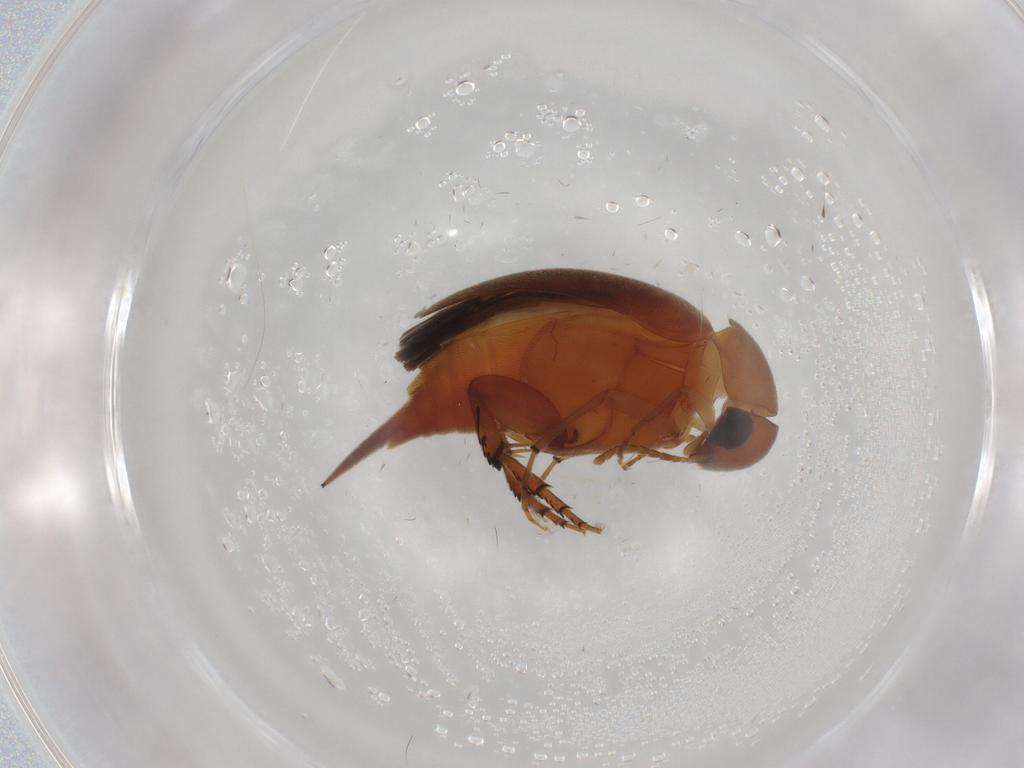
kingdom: Animalia
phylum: Arthropoda
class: Insecta
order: Coleoptera
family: Mordellidae
